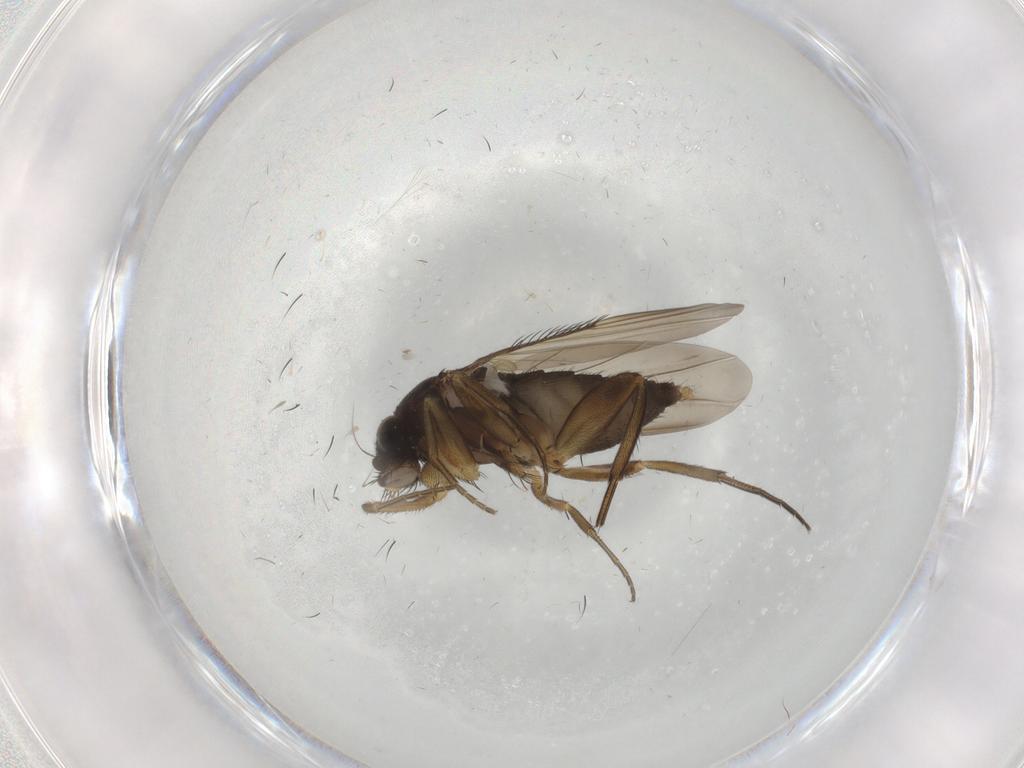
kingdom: Animalia
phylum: Arthropoda
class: Insecta
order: Diptera
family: Phoridae
